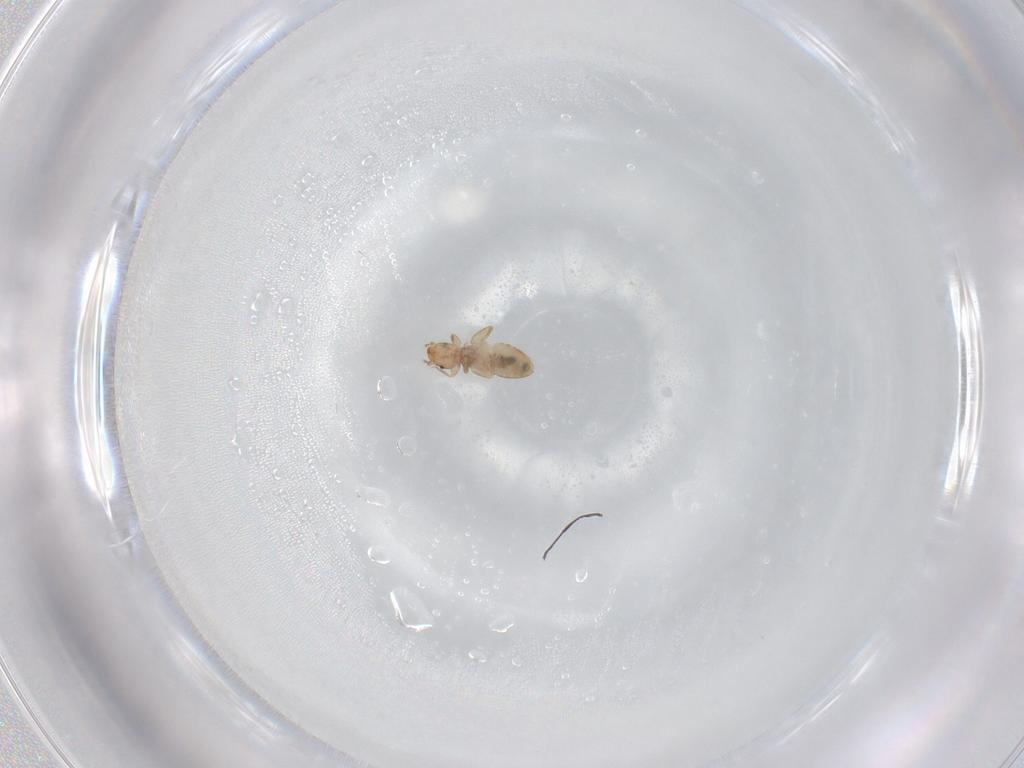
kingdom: Animalia
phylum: Arthropoda
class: Insecta
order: Psocodea
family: Liposcelididae
